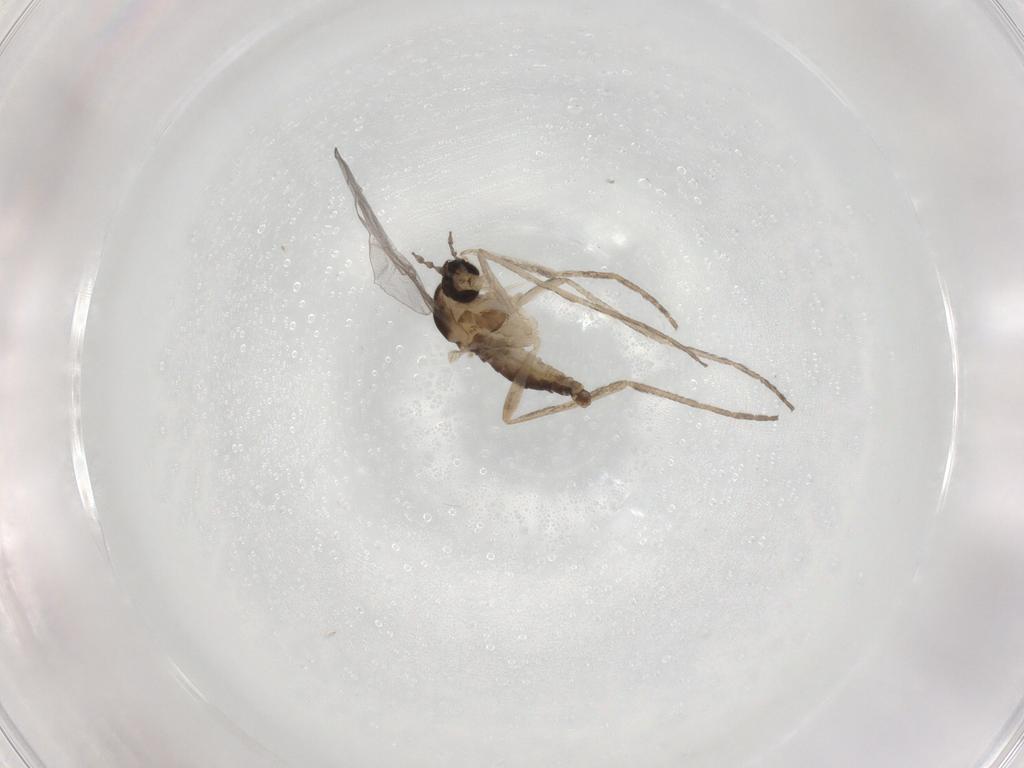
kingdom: Animalia
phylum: Arthropoda
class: Insecta
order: Diptera
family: Cecidomyiidae
